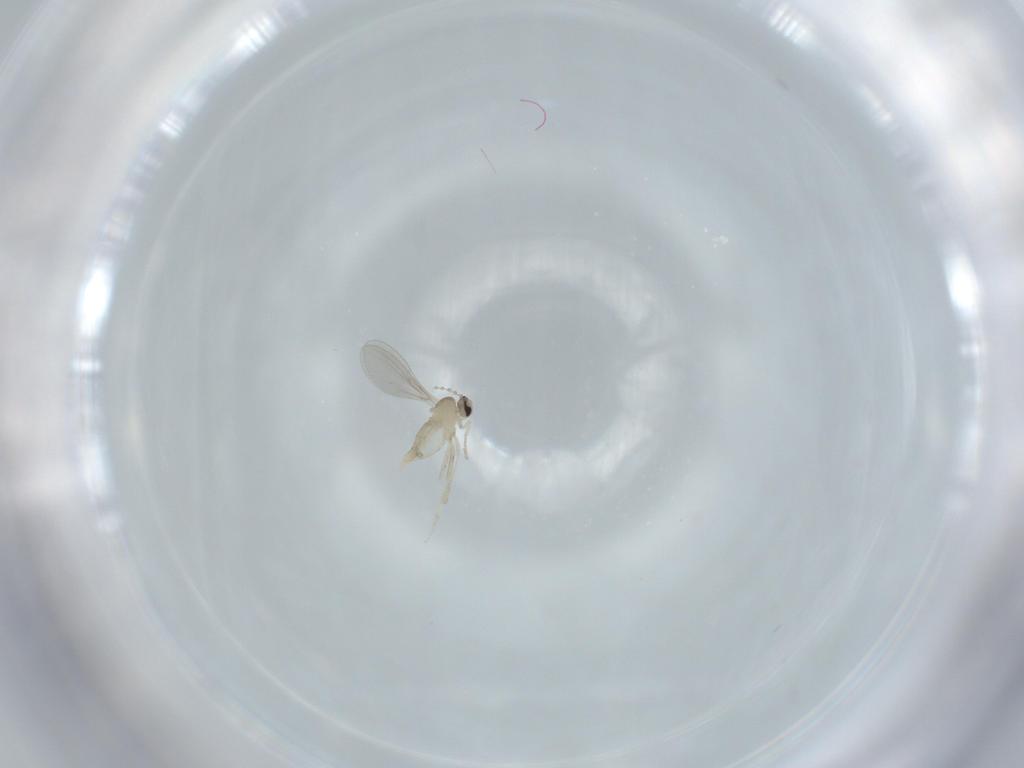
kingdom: Animalia
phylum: Arthropoda
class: Insecta
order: Diptera
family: Psychodidae
